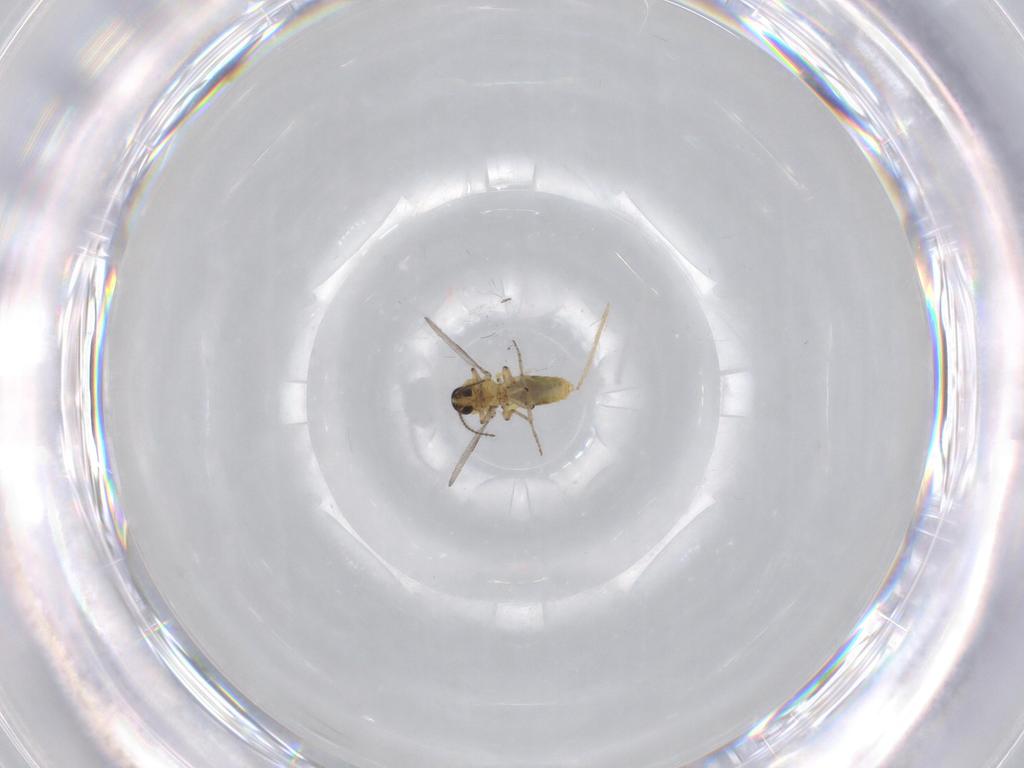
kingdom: Animalia
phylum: Arthropoda
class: Insecta
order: Diptera
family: Ceratopogonidae
